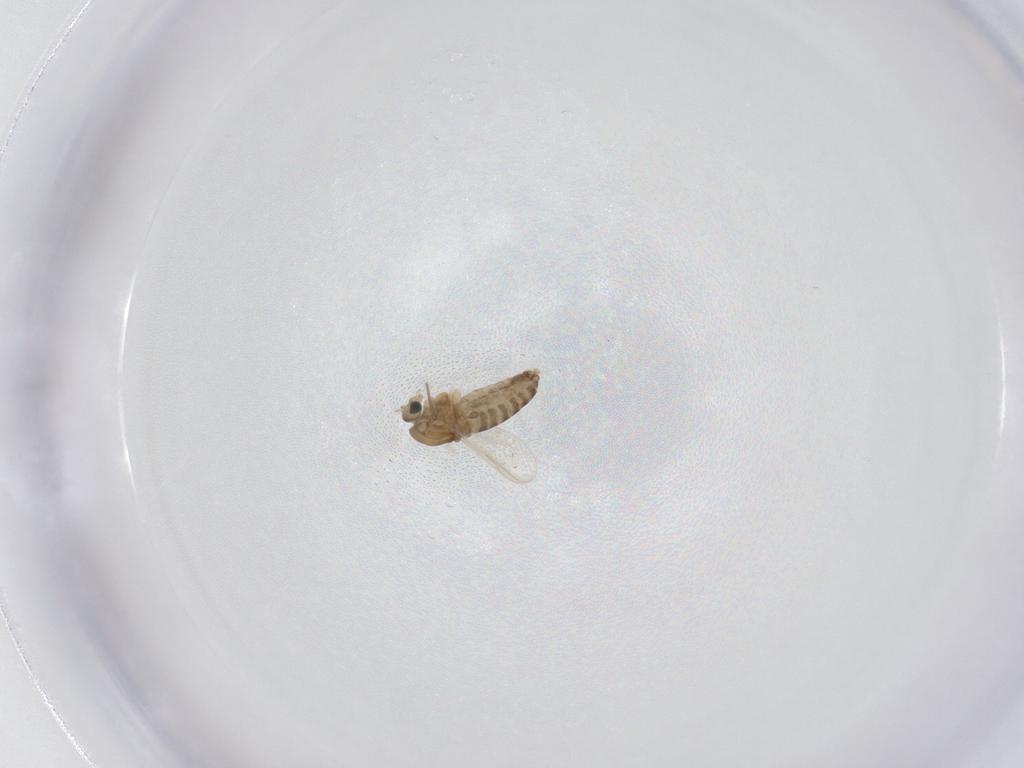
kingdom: Animalia
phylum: Arthropoda
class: Insecta
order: Diptera
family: Chironomidae
